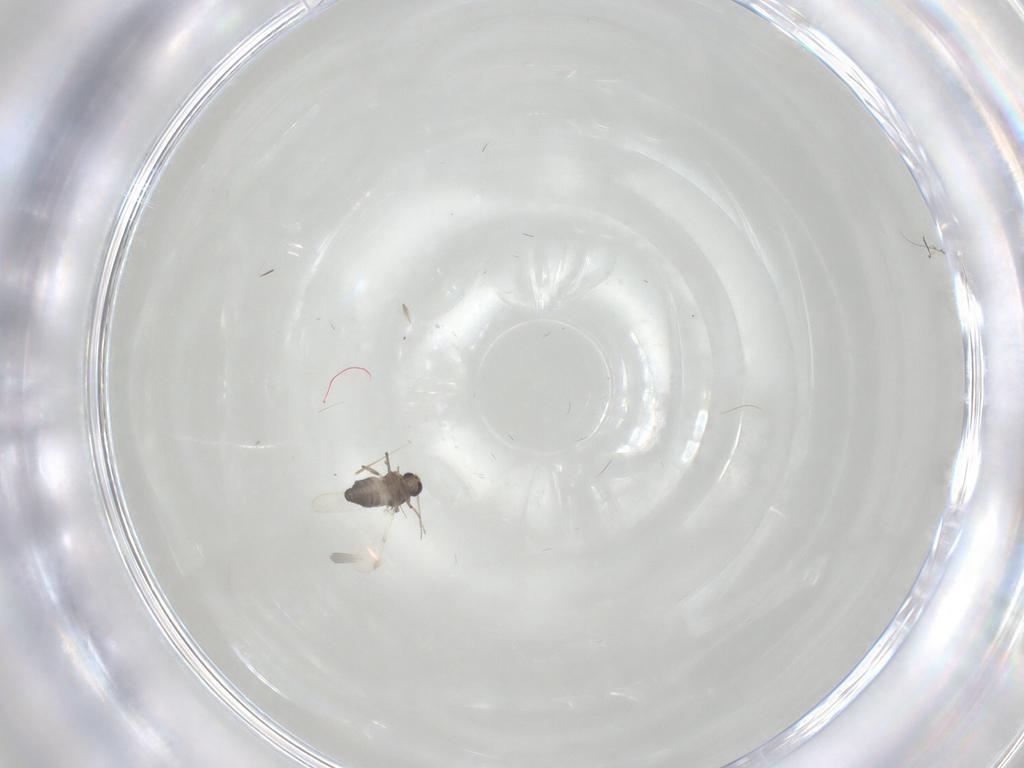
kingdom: Animalia
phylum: Arthropoda
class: Insecta
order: Diptera
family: Ceratopogonidae
